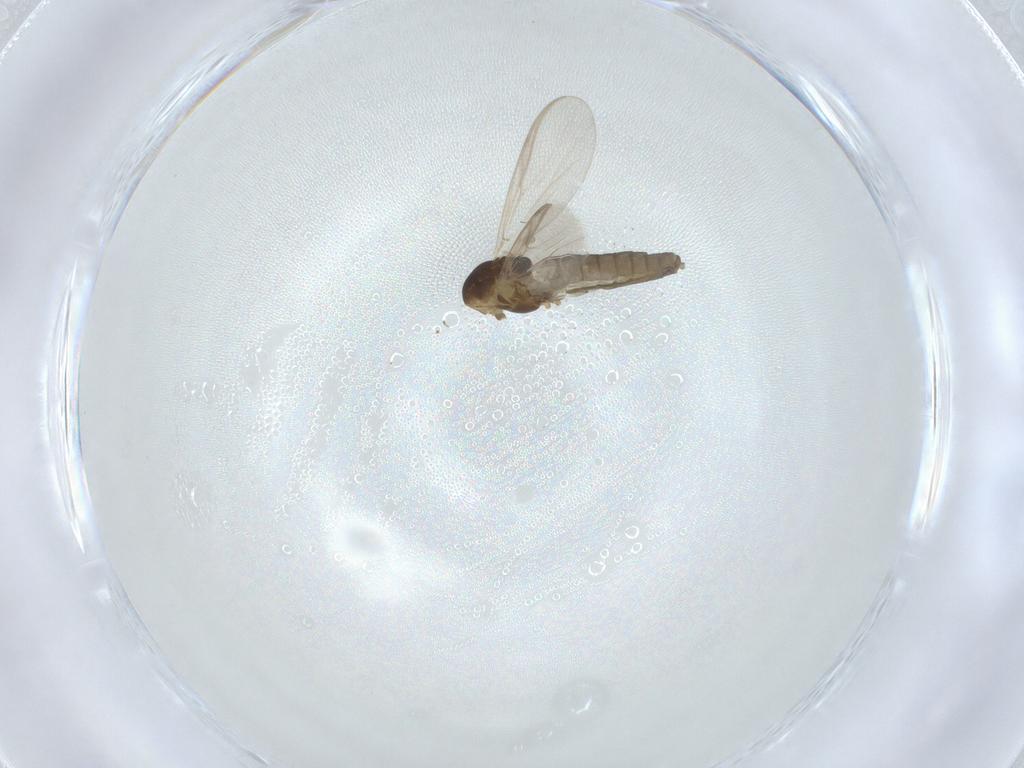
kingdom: Animalia
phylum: Arthropoda
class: Insecta
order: Diptera
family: Chironomidae
